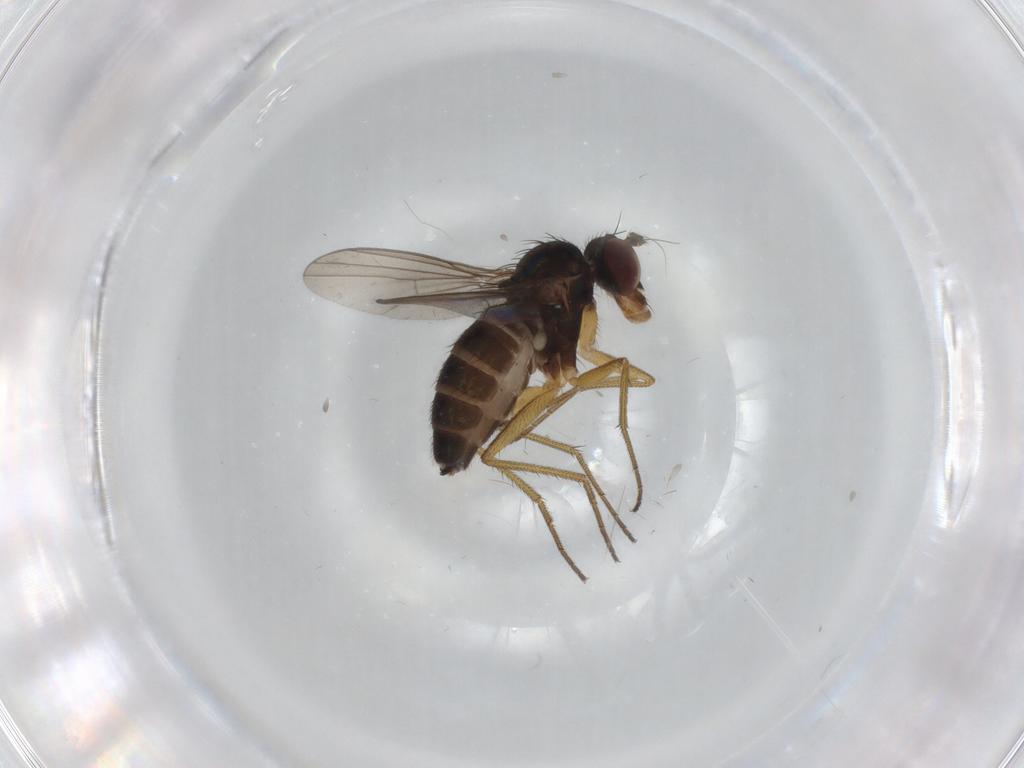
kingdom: Animalia
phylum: Arthropoda
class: Insecta
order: Diptera
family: Dolichopodidae
